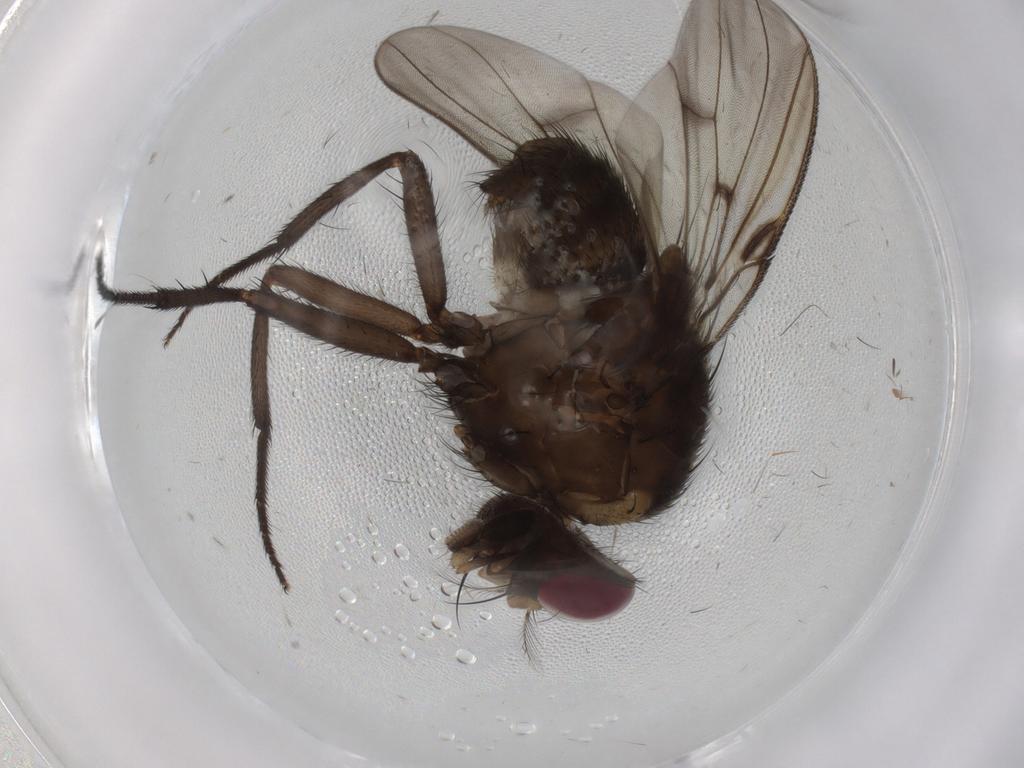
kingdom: Animalia
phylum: Arthropoda
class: Insecta
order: Diptera
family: Muscidae
